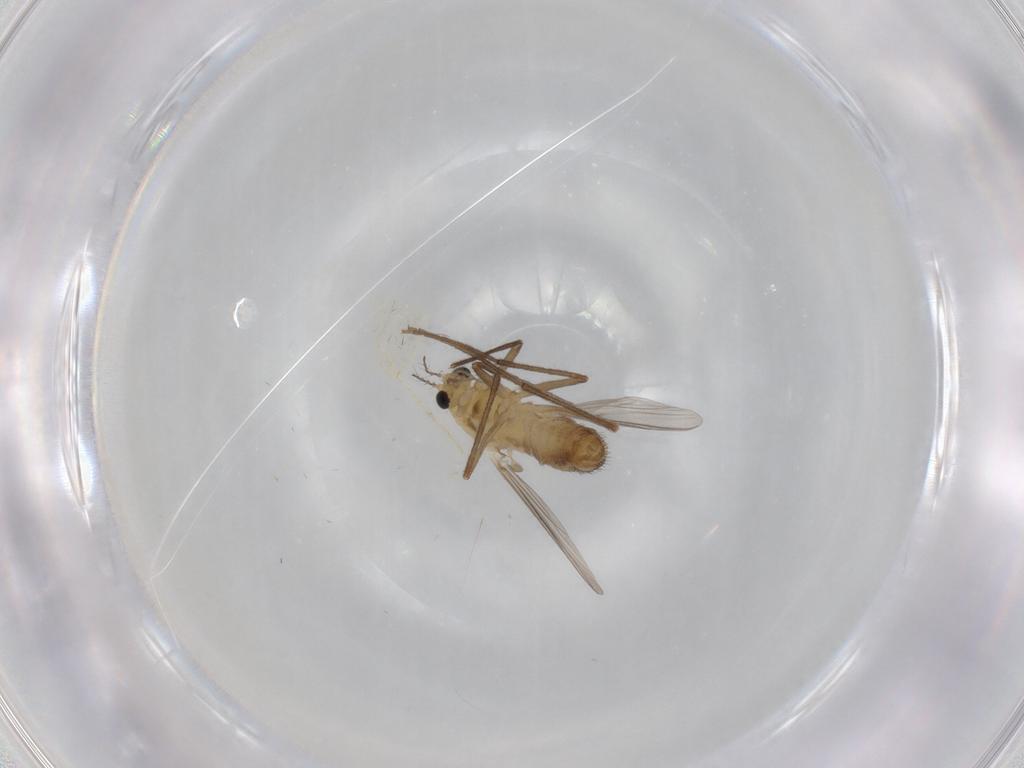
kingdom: Animalia
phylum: Arthropoda
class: Insecta
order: Diptera
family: Chironomidae
